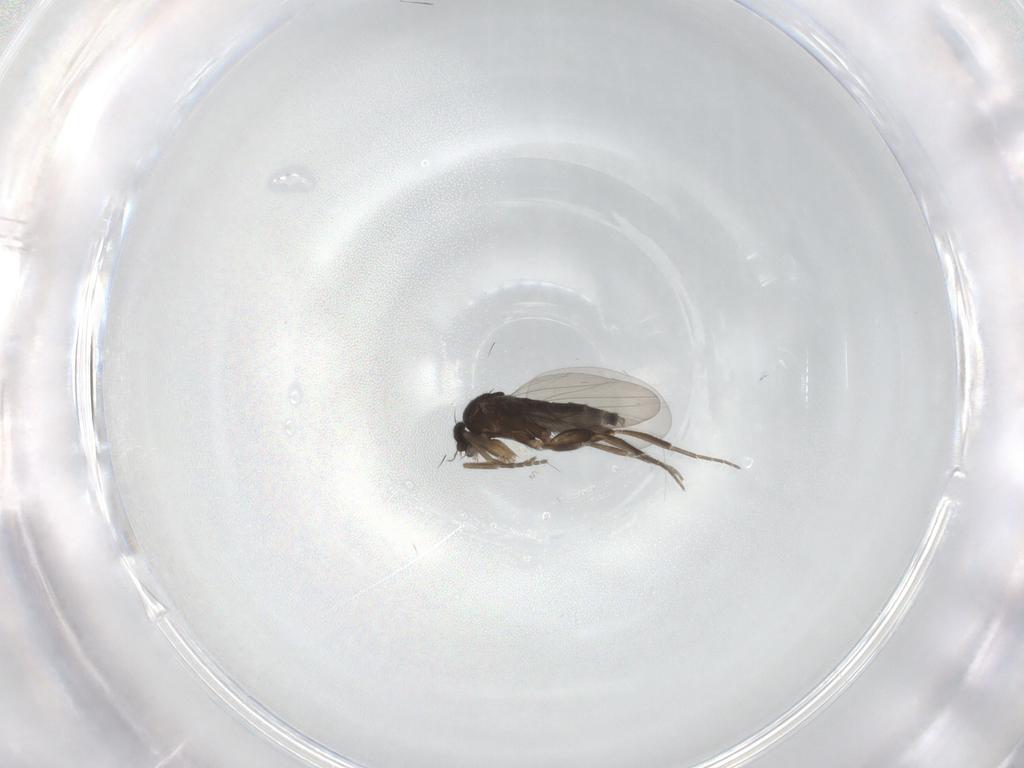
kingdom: Animalia
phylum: Arthropoda
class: Insecta
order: Diptera
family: Phoridae
